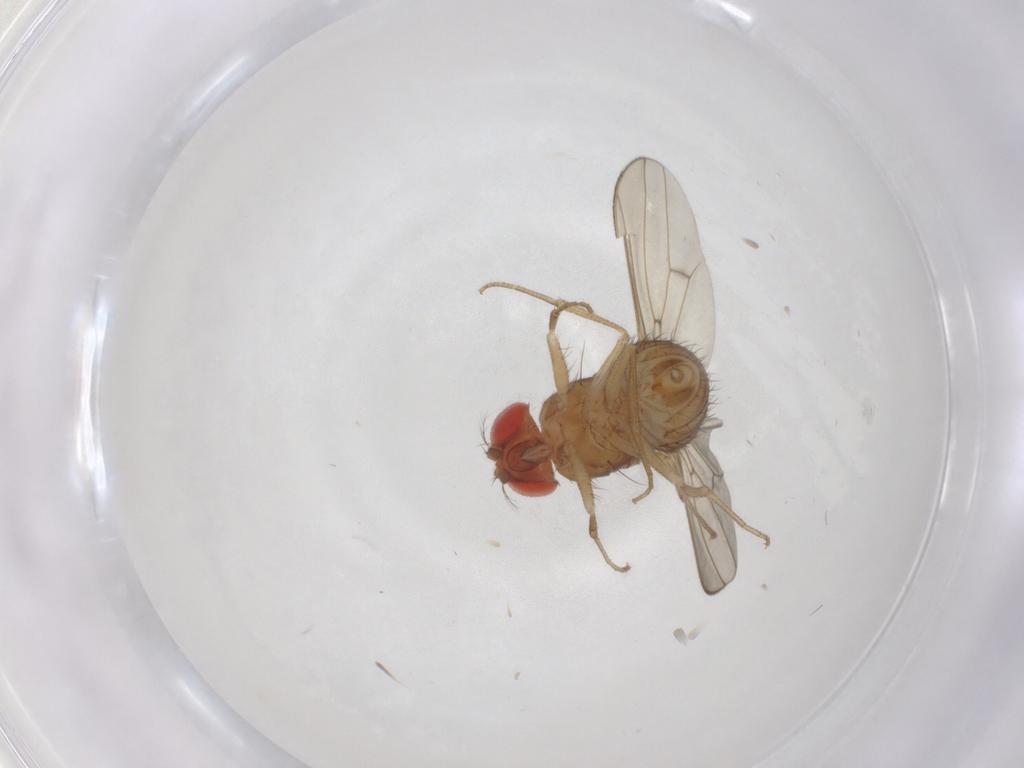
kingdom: Animalia
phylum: Arthropoda
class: Insecta
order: Diptera
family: Drosophilidae
